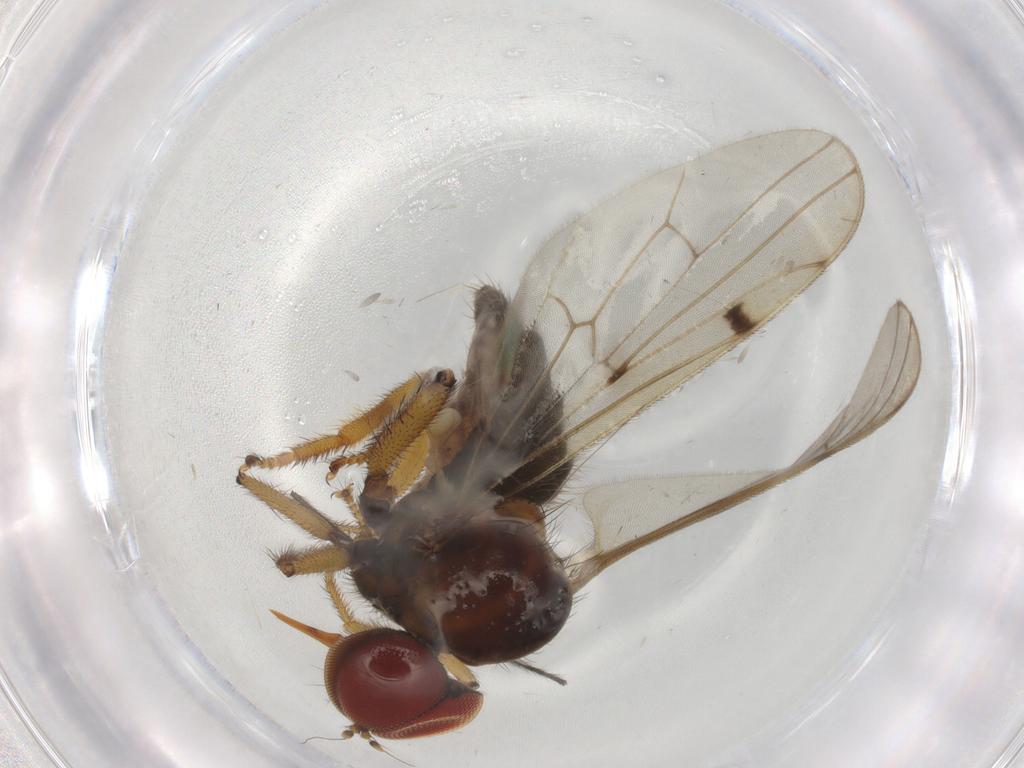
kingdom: Animalia
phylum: Arthropoda
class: Insecta
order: Diptera
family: Hybotidae
